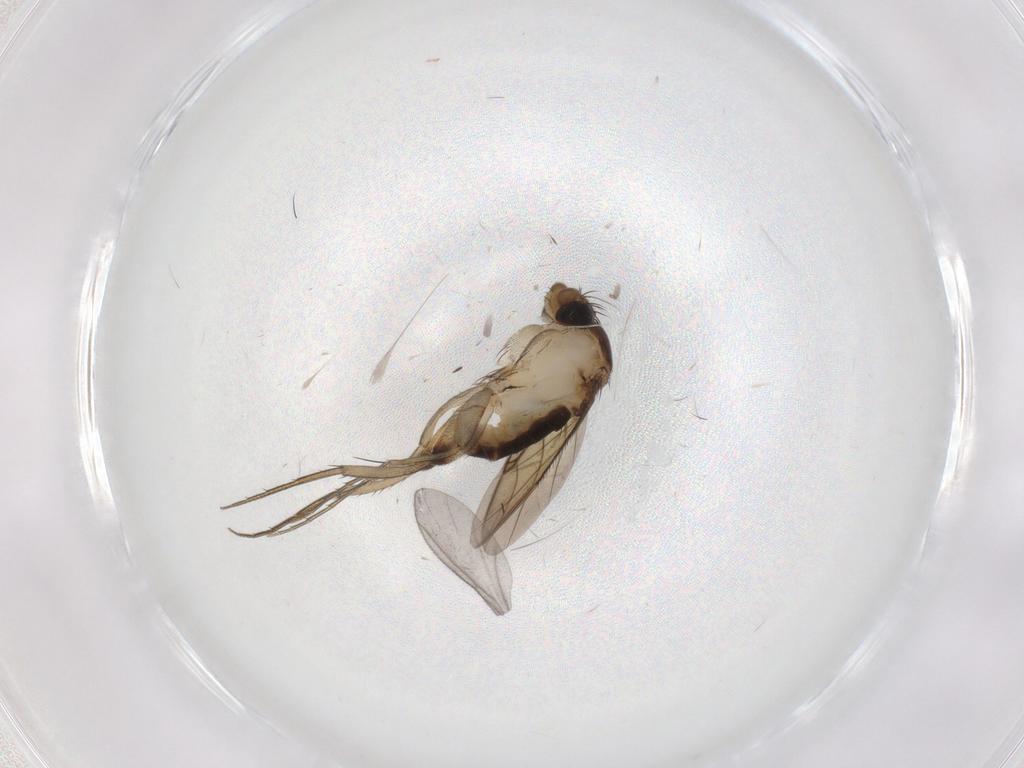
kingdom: Animalia
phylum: Arthropoda
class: Insecta
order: Diptera
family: Phoridae
